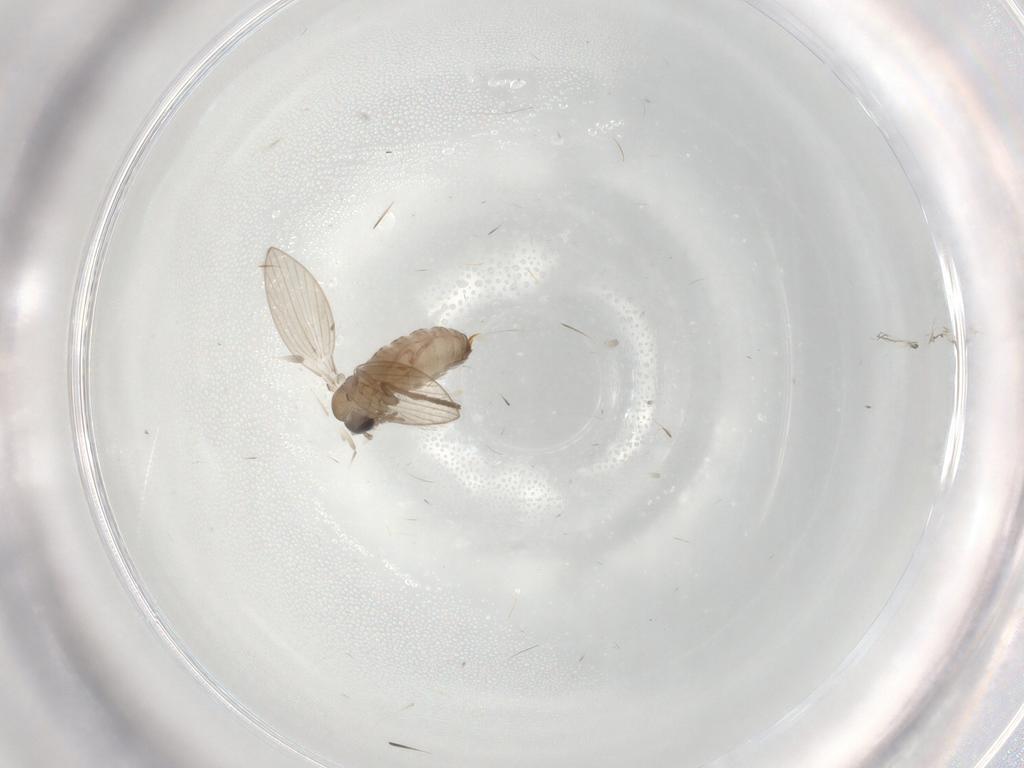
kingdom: Animalia
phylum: Arthropoda
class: Insecta
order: Diptera
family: Psychodidae
